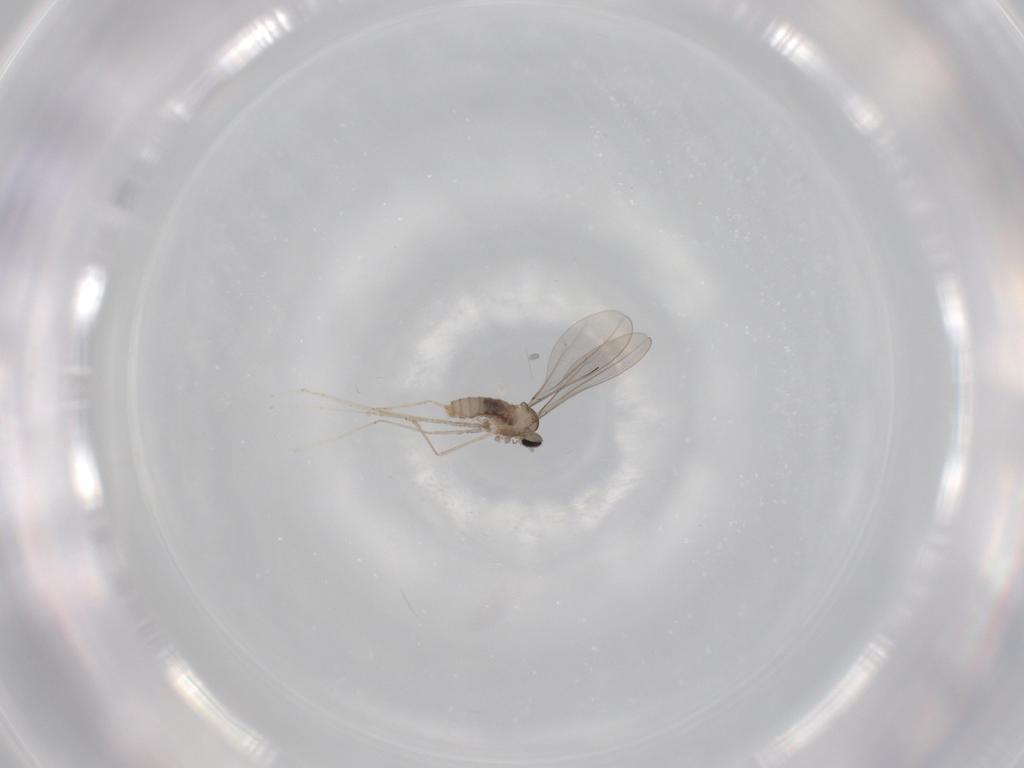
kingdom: Animalia
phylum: Arthropoda
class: Insecta
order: Diptera
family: Cecidomyiidae
